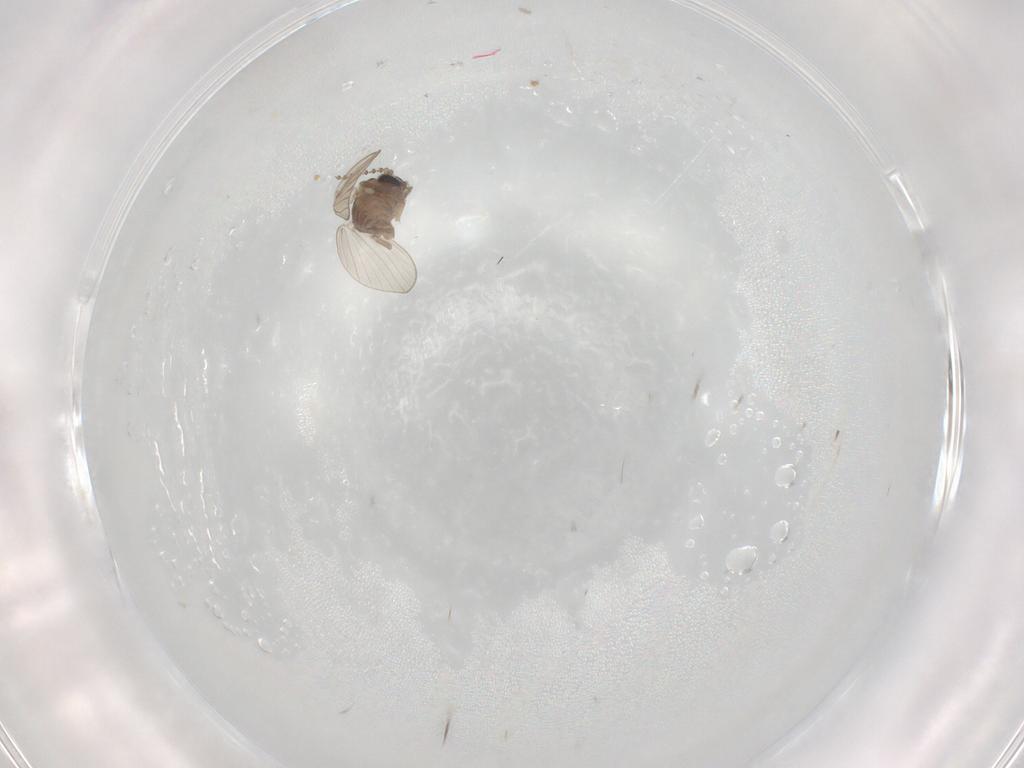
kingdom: Animalia
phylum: Arthropoda
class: Insecta
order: Diptera
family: Psychodidae
